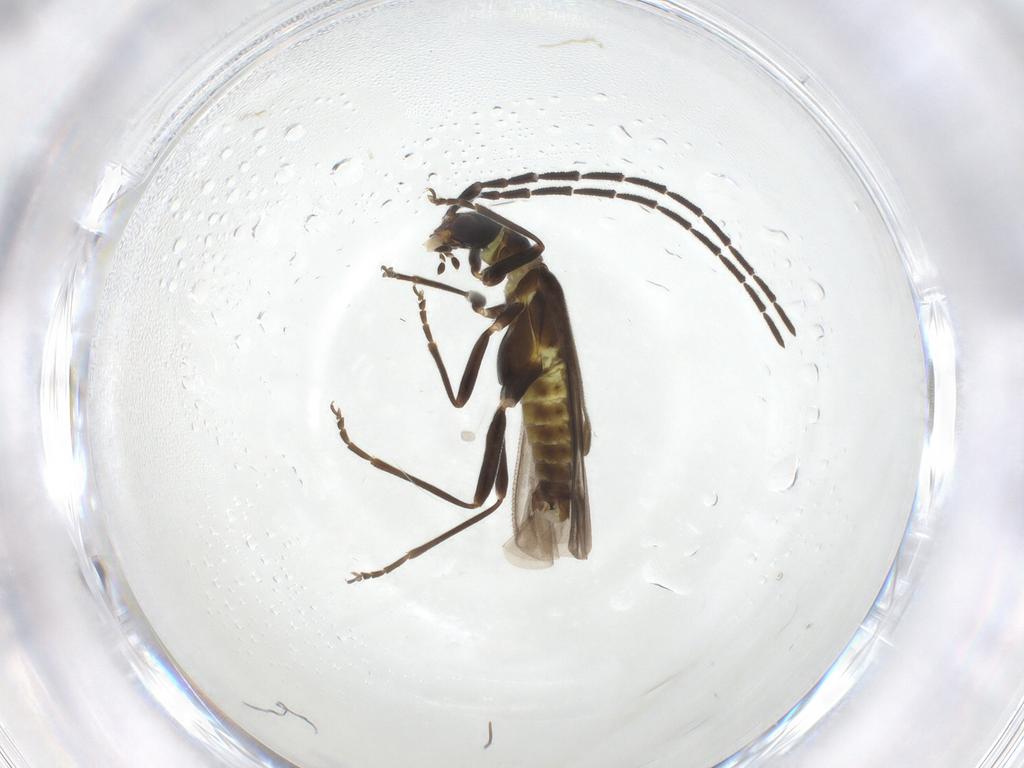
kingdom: Animalia
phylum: Arthropoda
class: Insecta
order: Coleoptera
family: Cantharidae
